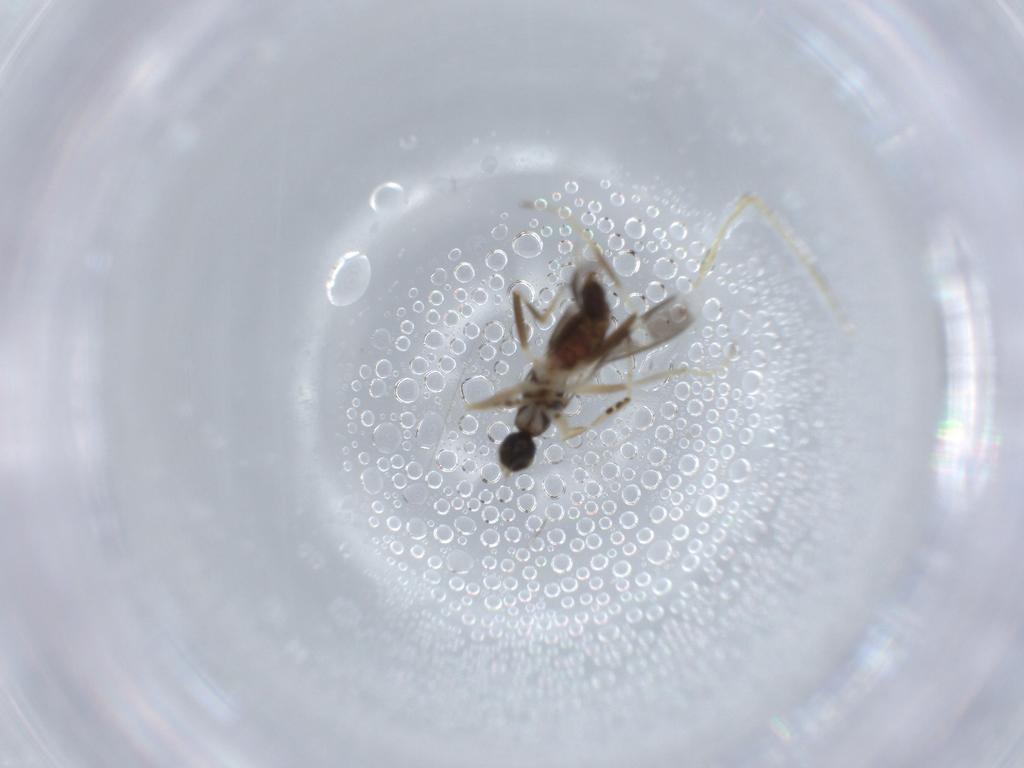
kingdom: Animalia
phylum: Arthropoda
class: Insecta
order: Diptera
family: Hybotidae
